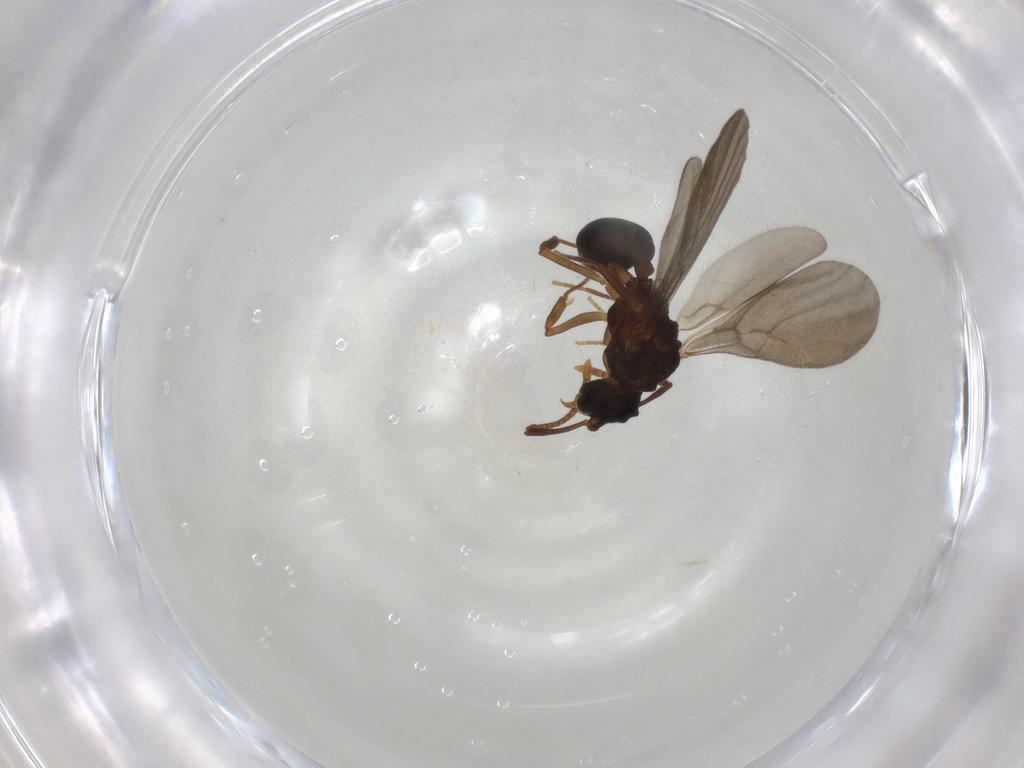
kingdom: Animalia
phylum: Arthropoda
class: Insecta
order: Hymenoptera
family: Formicidae
